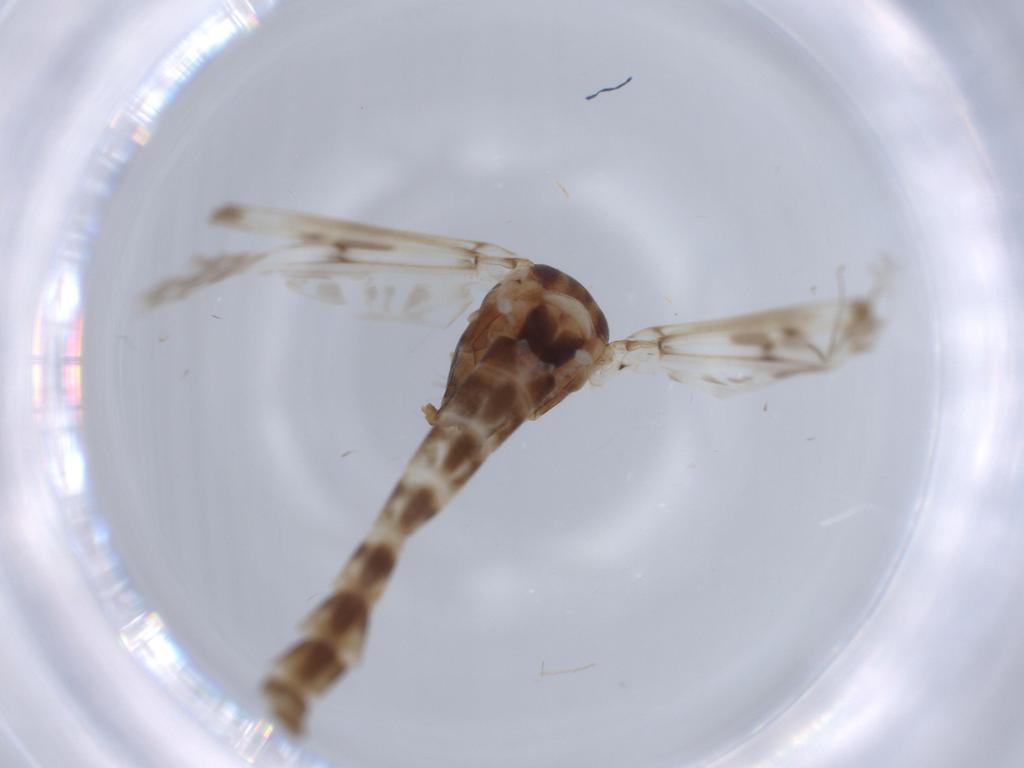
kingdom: Animalia
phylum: Arthropoda
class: Insecta
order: Diptera
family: Chironomidae
